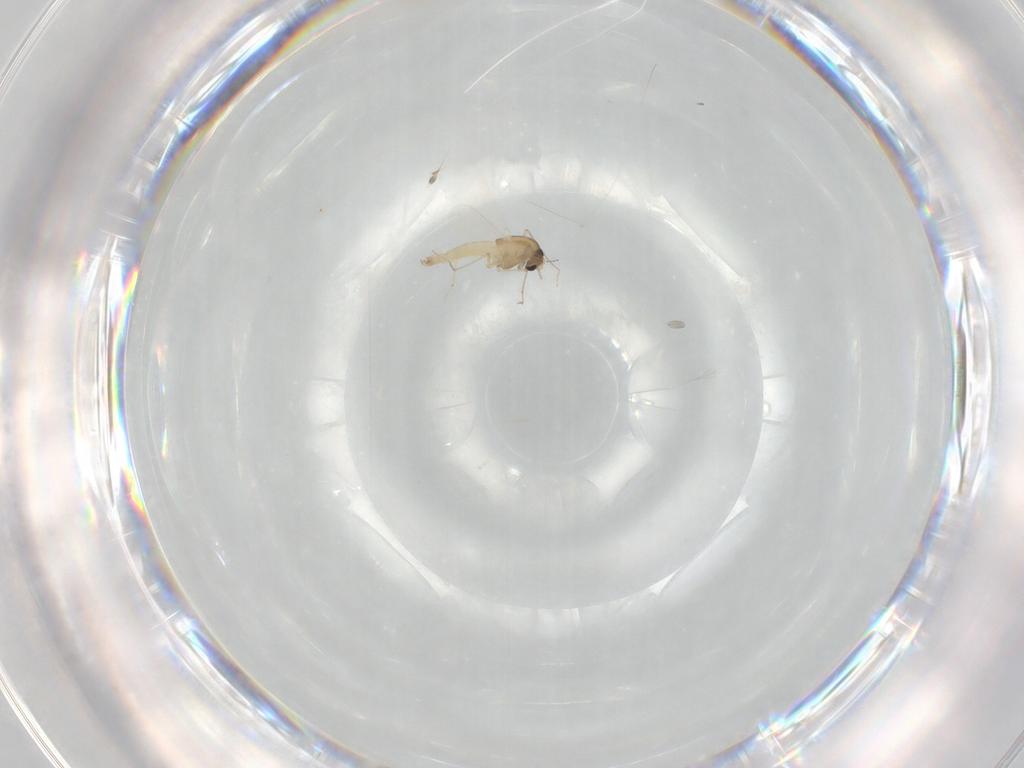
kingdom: Animalia
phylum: Arthropoda
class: Insecta
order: Diptera
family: Chironomidae
